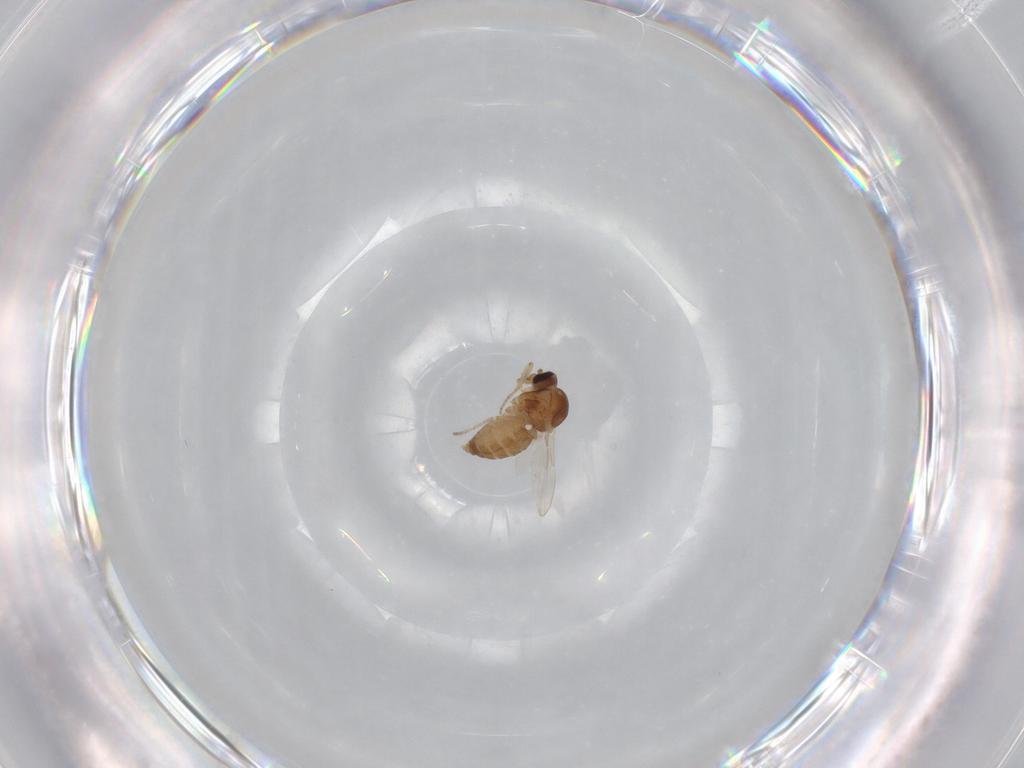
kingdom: Animalia
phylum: Arthropoda
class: Insecta
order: Diptera
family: Ceratopogonidae
